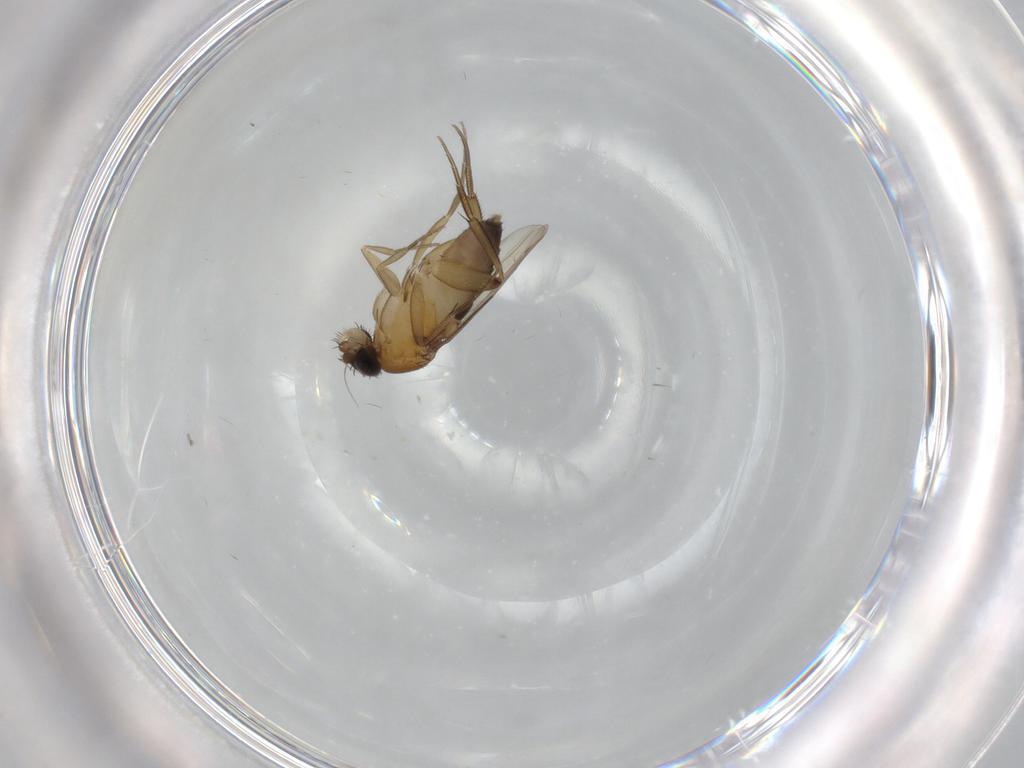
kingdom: Animalia
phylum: Arthropoda
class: Insecta
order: Diptera
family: Phoridae
